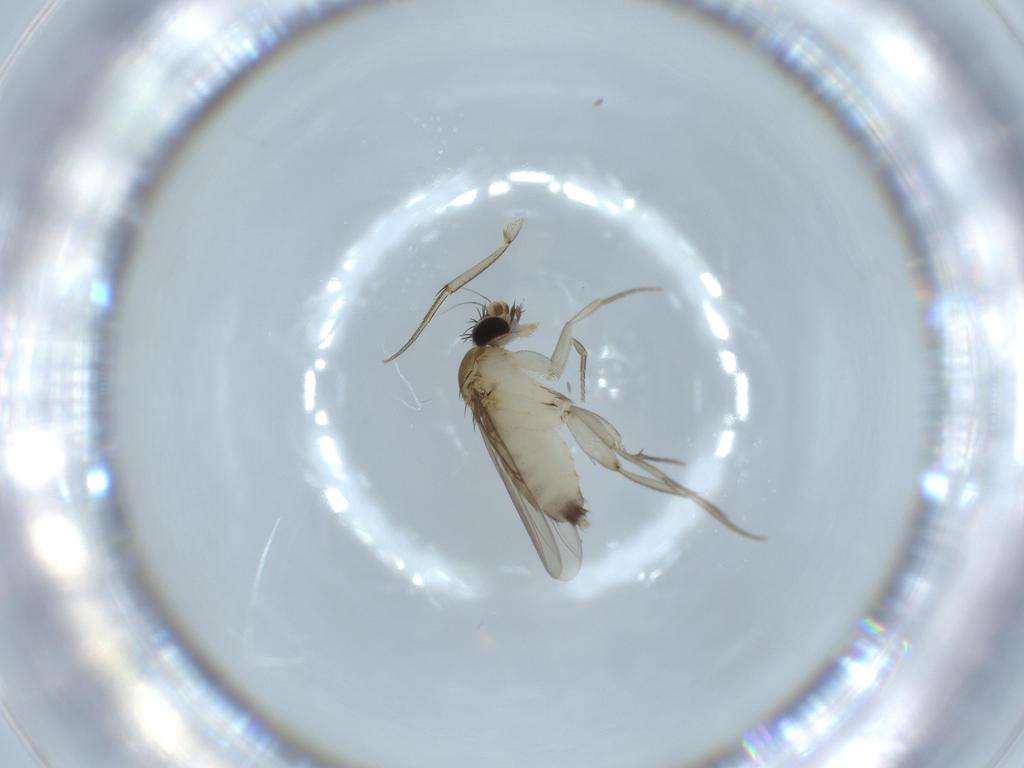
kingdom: Animalia
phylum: Arthropoda
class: Insecta
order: Diptera
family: Phoridae
